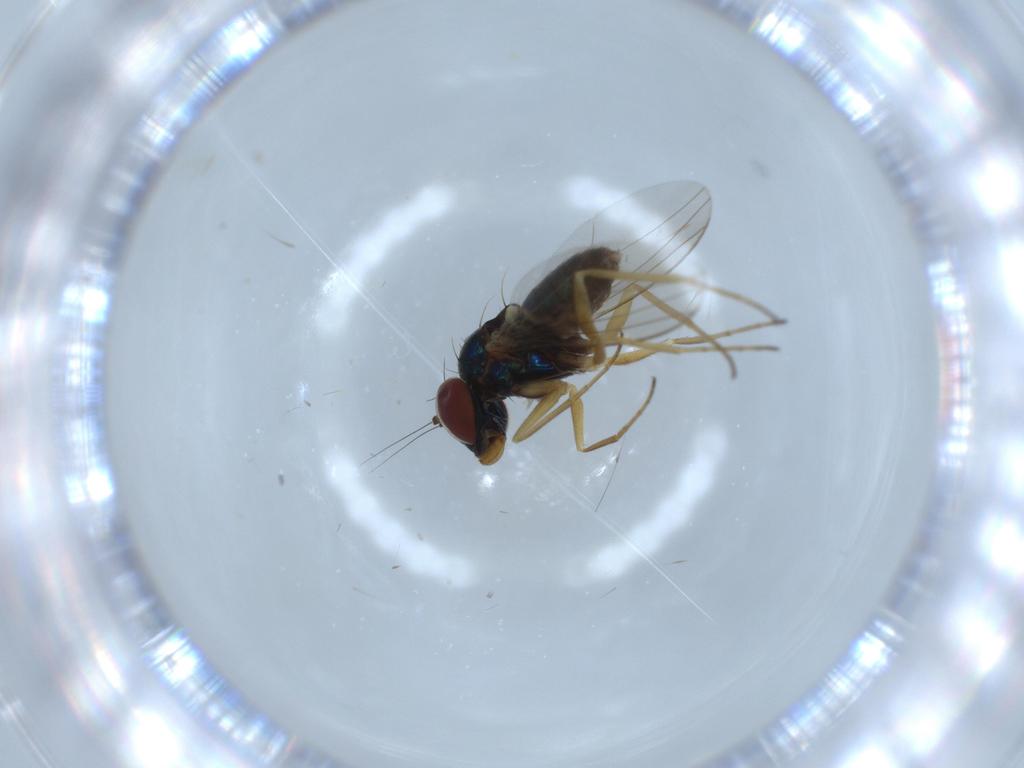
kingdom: Animalia
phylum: Arthropoda
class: Insecta
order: Diptera
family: Dolichopodidae
